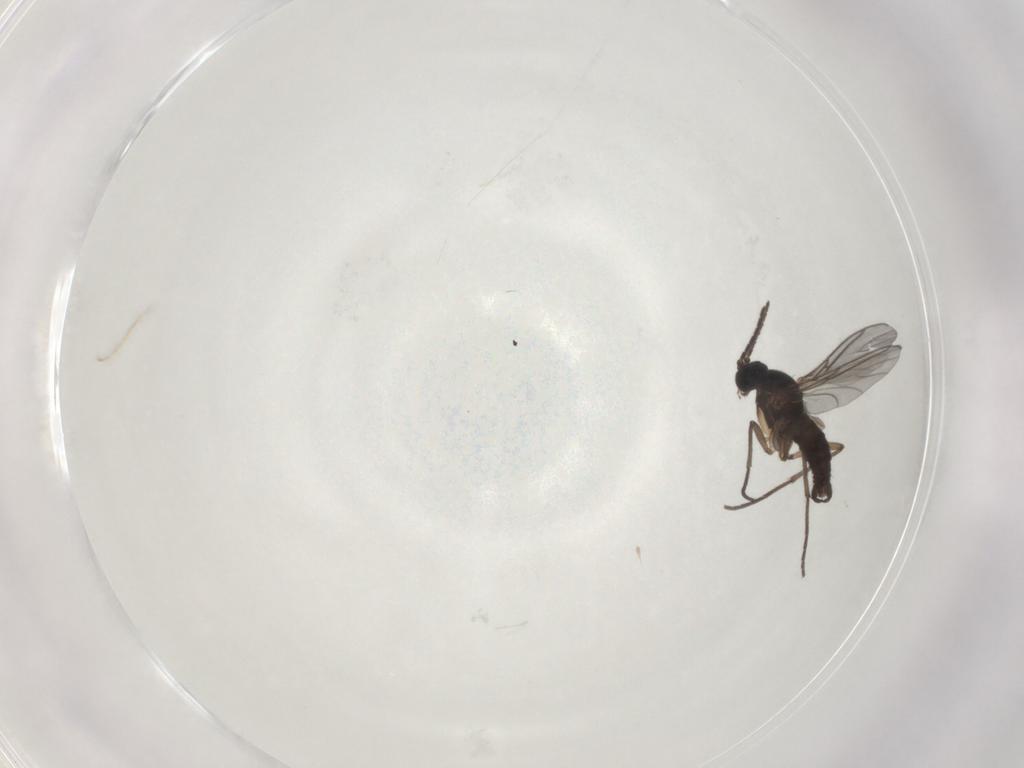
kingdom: Animalia
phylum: Arthropoda
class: Insecta
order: Diptera
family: Sciaridae
